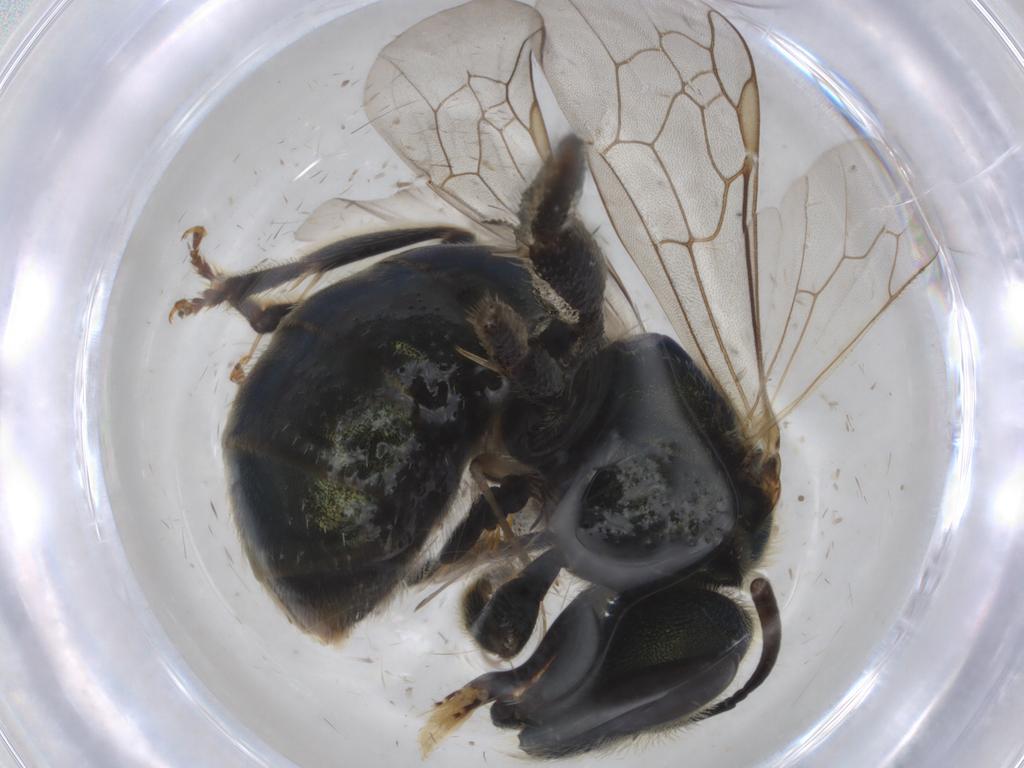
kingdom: Animalia
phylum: Arthropoda
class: Insecta
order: Hymenoptera
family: Halictidae
